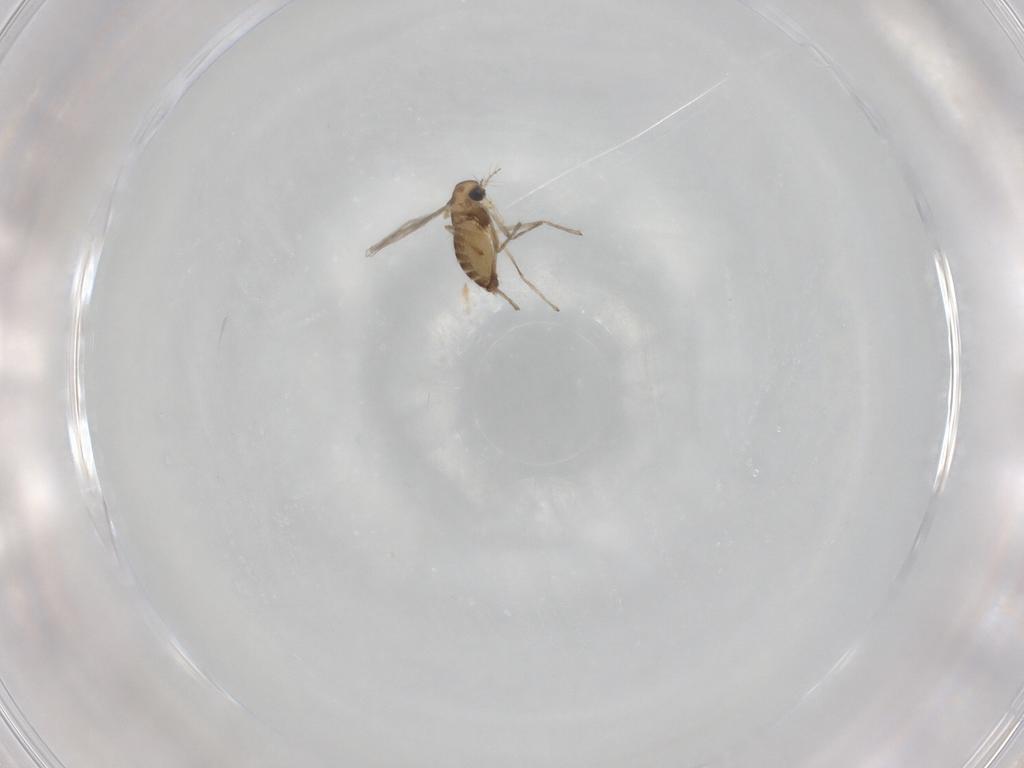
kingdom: Animalia
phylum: Arthropoda
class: Insecta
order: Diptera
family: Chironomidae
